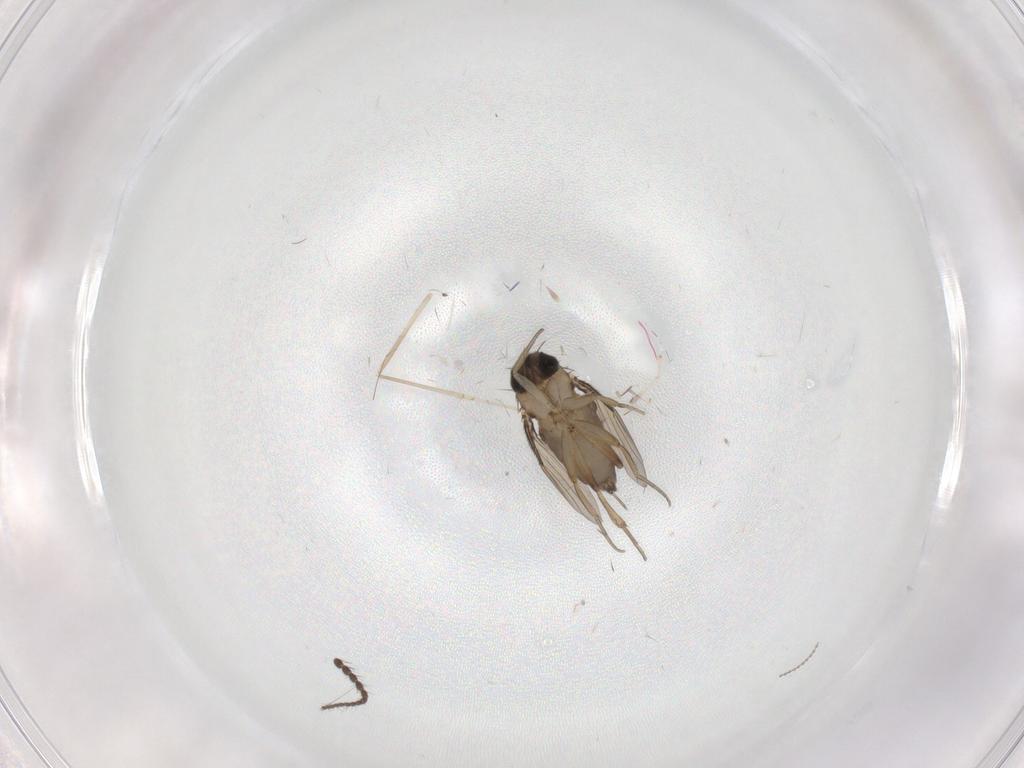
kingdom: Animalia
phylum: Arthropoda
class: Insecta
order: Diptera
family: Phoridae
